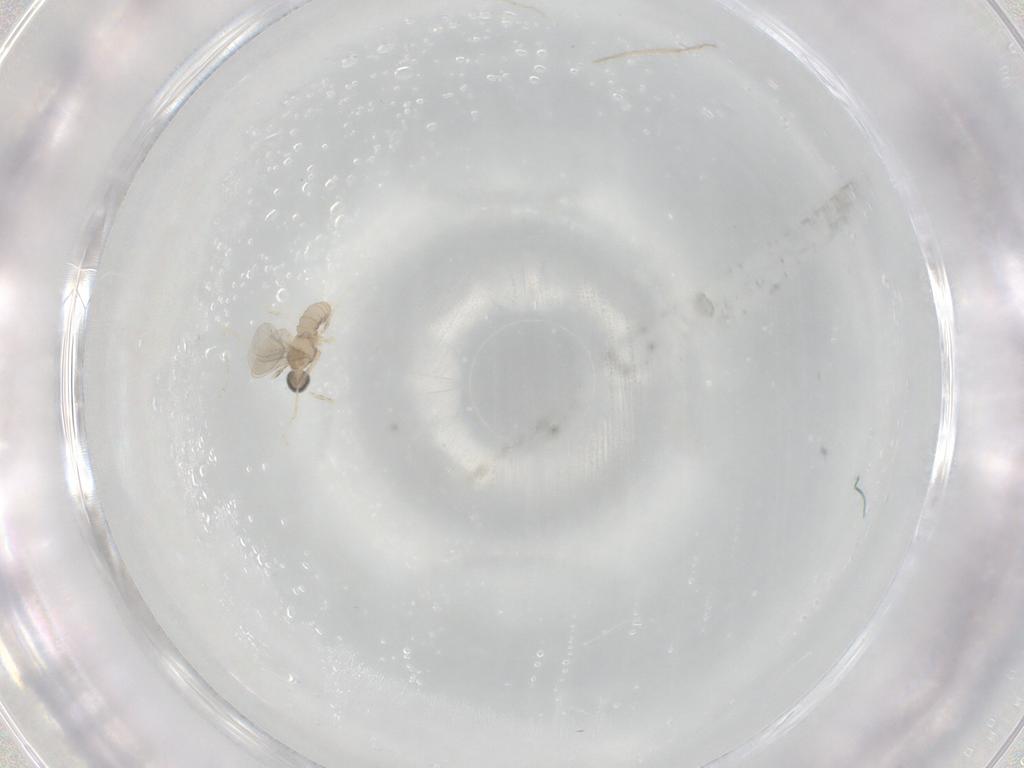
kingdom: Animalia
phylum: Arthropoda
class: Insecta
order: Diptera
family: Cecidomyiidae
